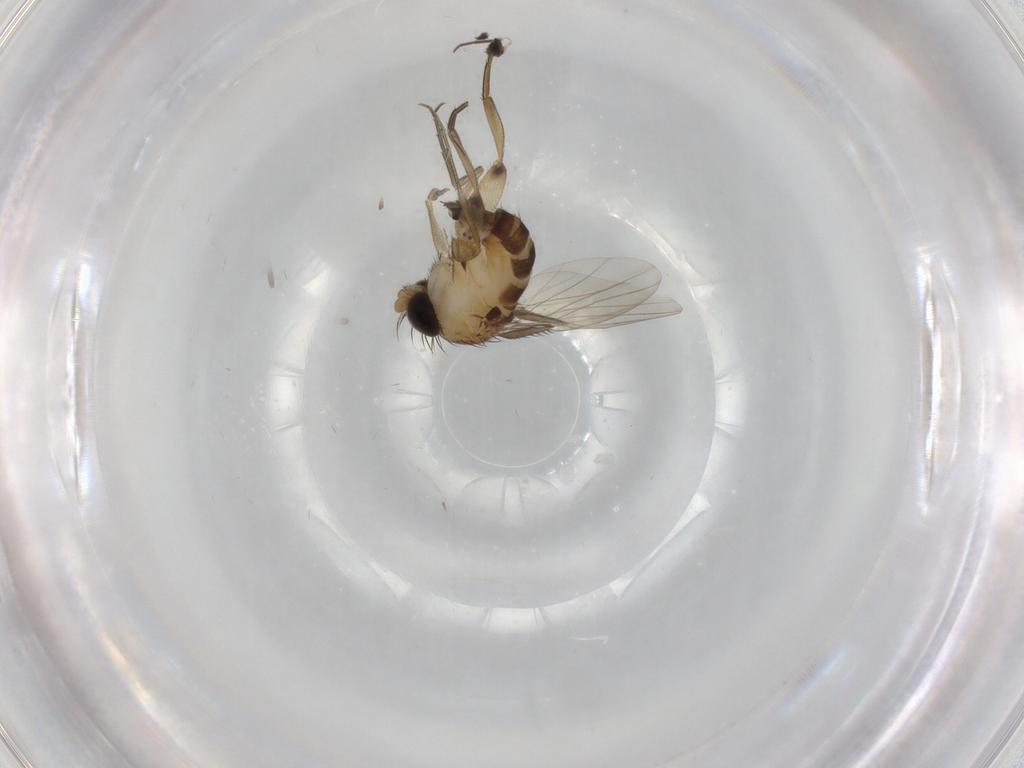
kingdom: Animalia
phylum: Arthropoda
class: Insecta
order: Diptera
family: Phoridae
